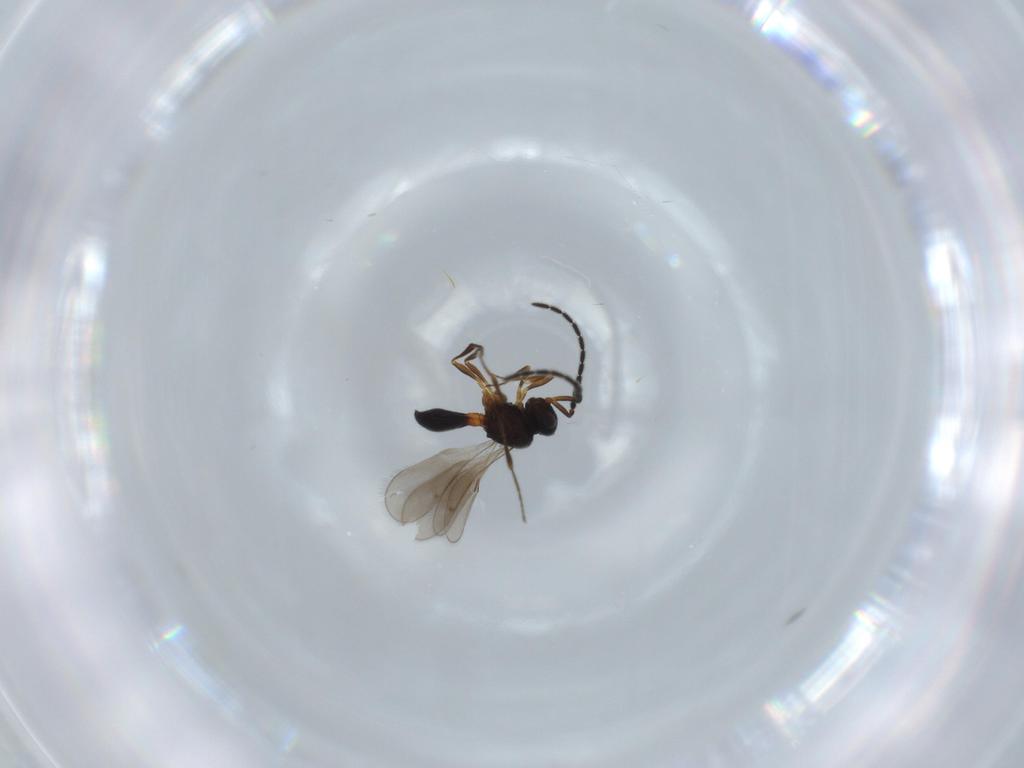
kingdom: Animalia
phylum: Arthropoda
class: Insecta
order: Hymenoptera
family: Scelionidae
